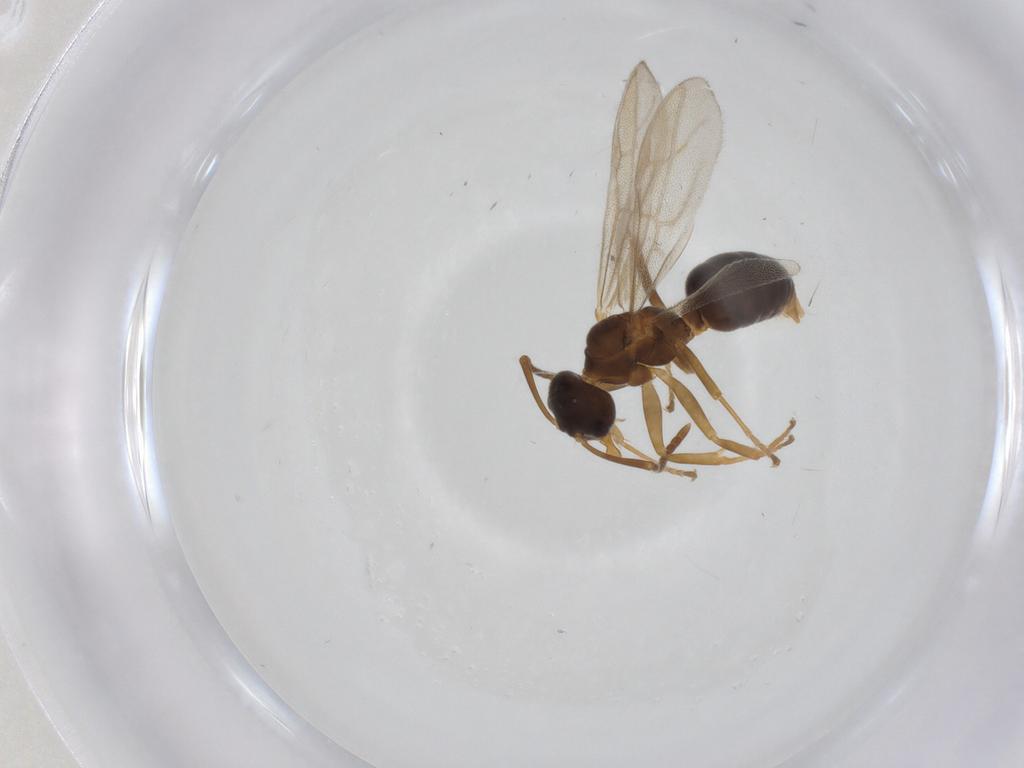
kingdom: Animalia
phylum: Arthropoda
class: Insecta
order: Hymenoptera
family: Formicidae
